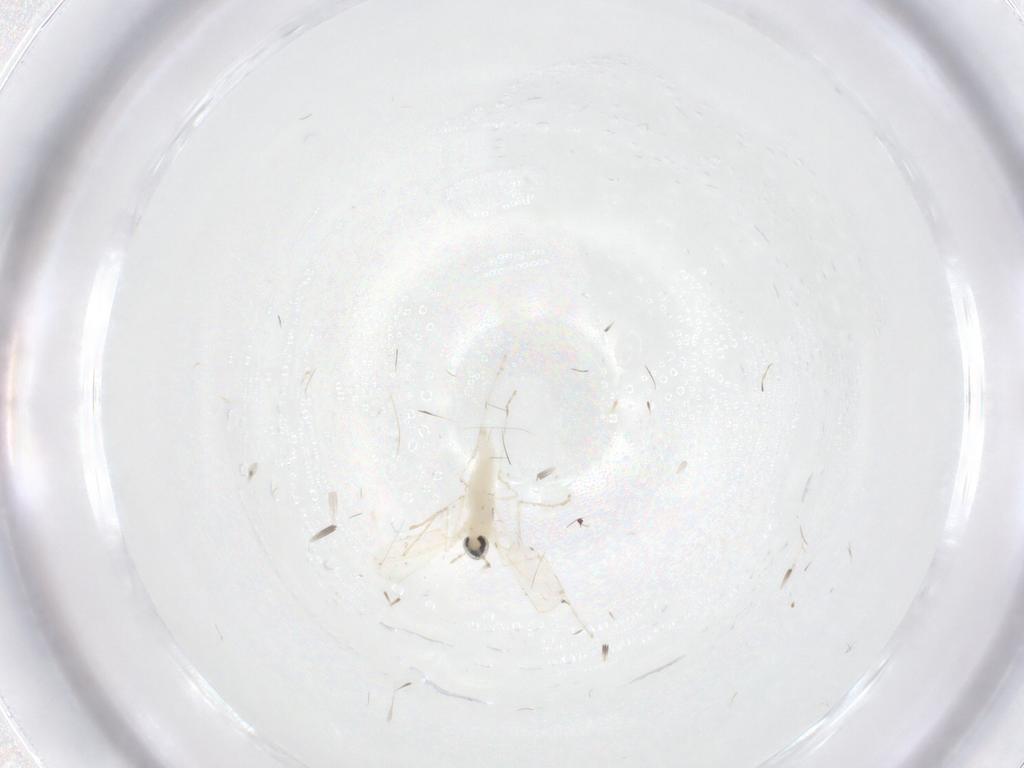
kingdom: Animalia
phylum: Arthropoda
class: Insecta
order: Diptera
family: Cecidomyiidae
